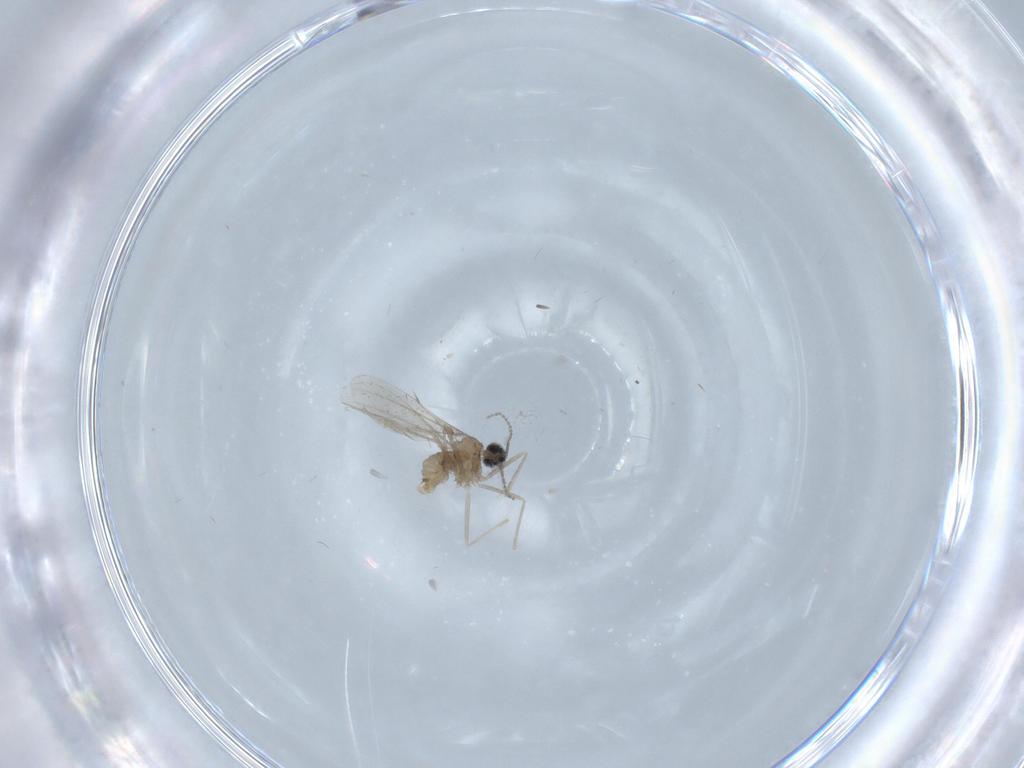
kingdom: Animalia
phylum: Arthropoda
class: Insecta
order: Diptera
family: Cecidomyiidae
